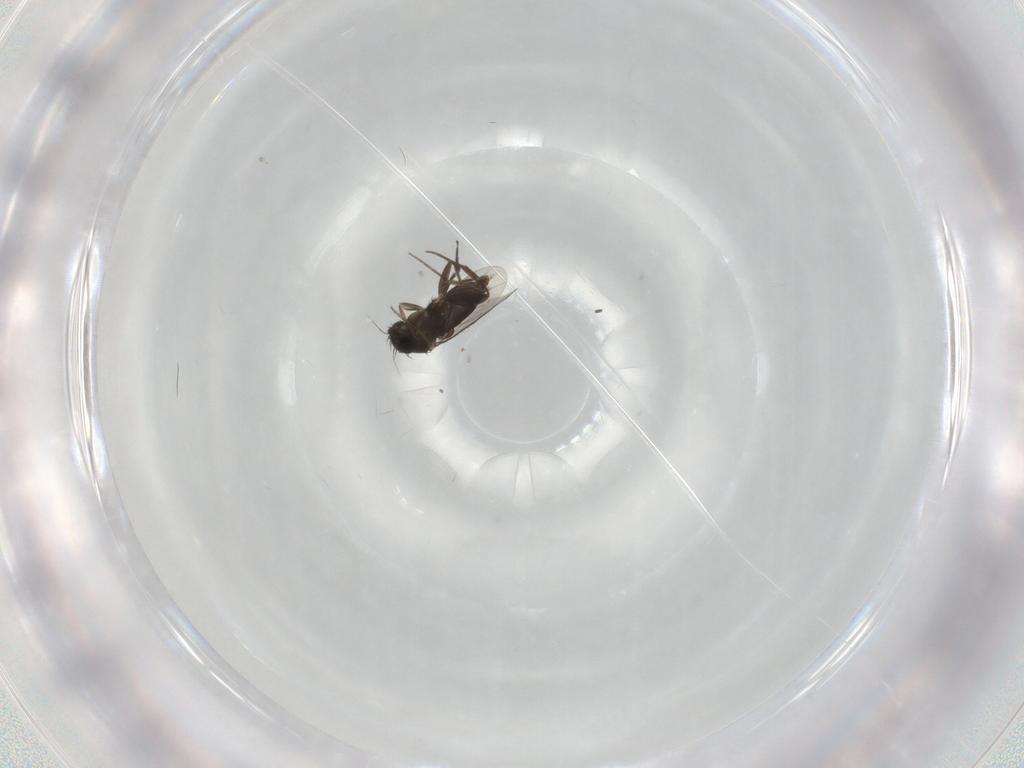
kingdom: Animalia
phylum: Arthropoda
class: Insecta
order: Diptera
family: Phoridae
